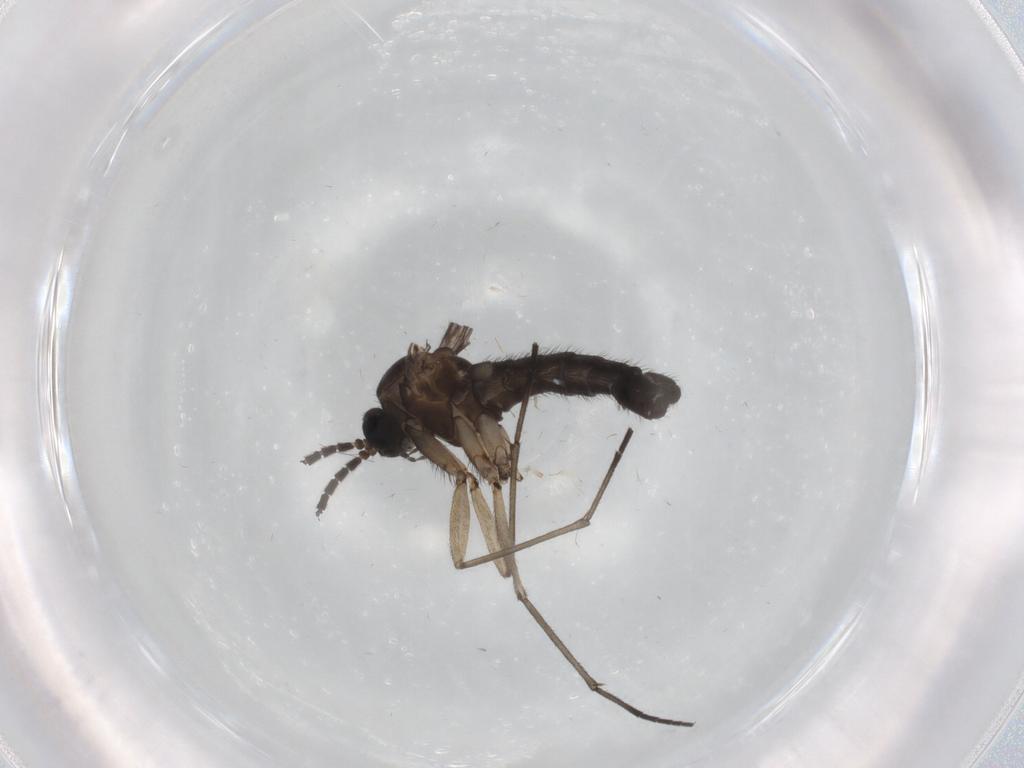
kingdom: Animalia
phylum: Arthropoda
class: Insecta
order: Diptera
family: Sciaridae
